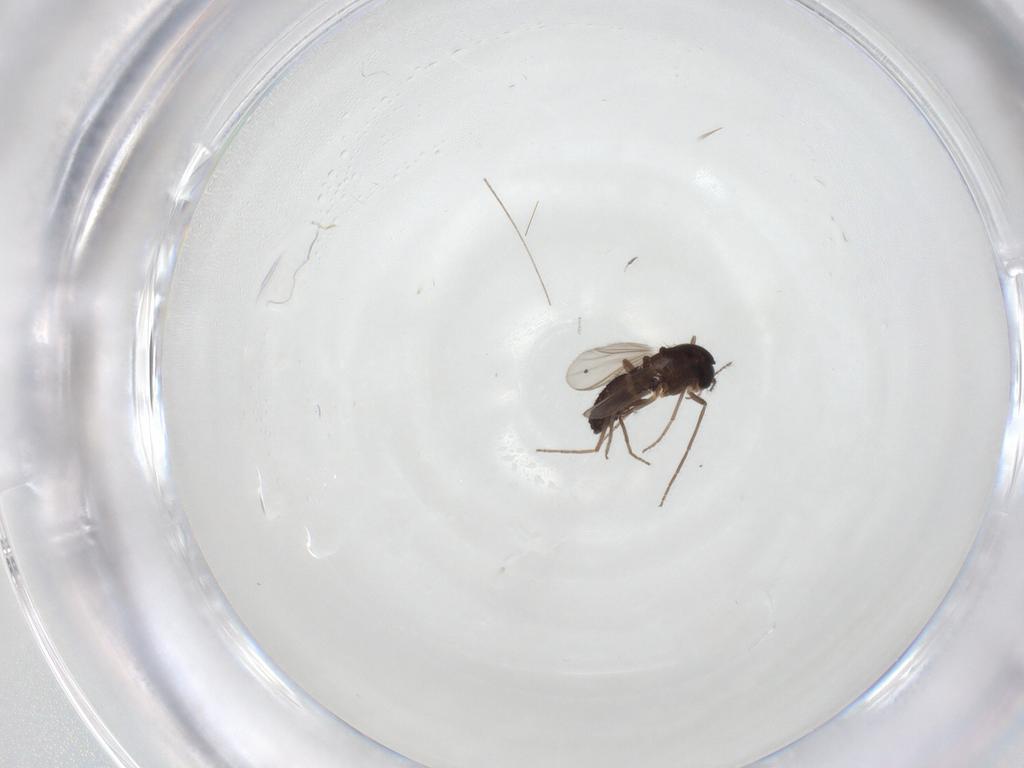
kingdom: Animalia
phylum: Arthropoda
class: Insecta
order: Diptera
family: Chironomidae
